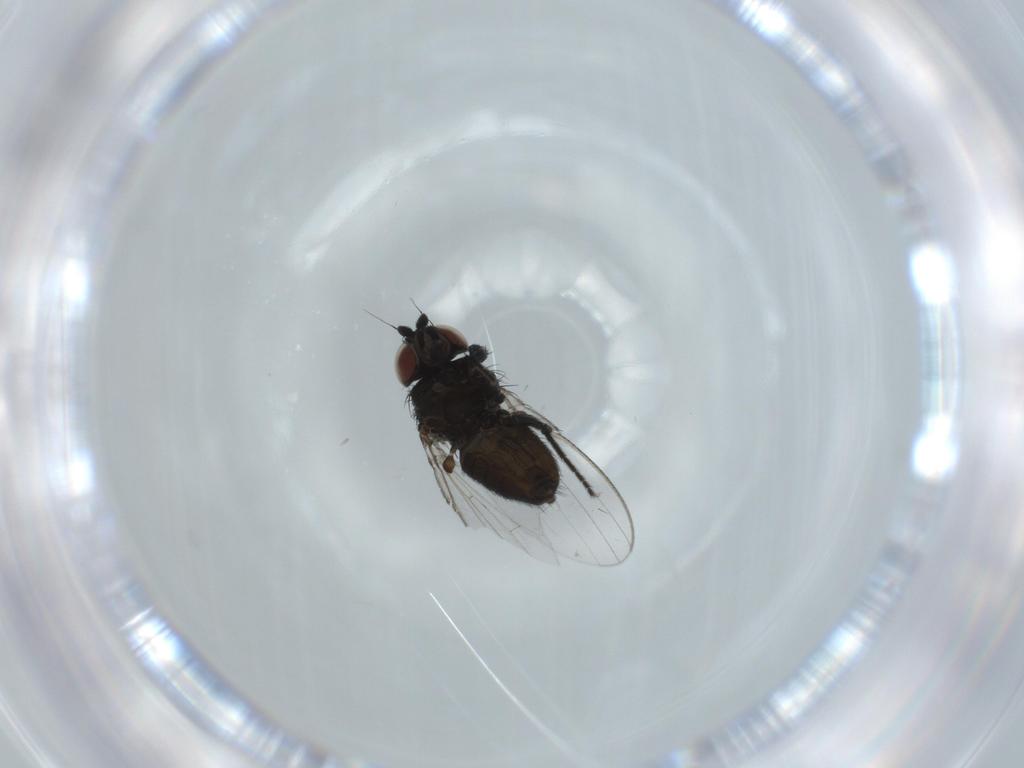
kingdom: Animalia
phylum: Arthropoda
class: Insecta
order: Diptera
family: Milichiidae
